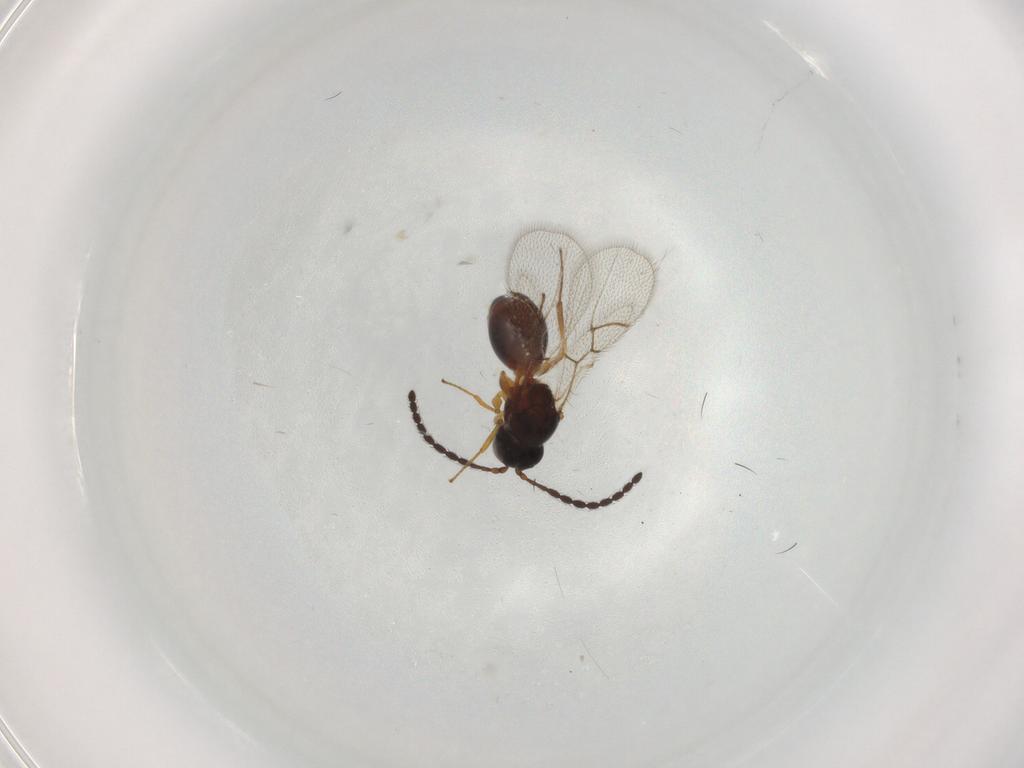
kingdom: Animalia
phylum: Arthropoda
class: Insecta
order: Hymenoptera
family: Figitidae
